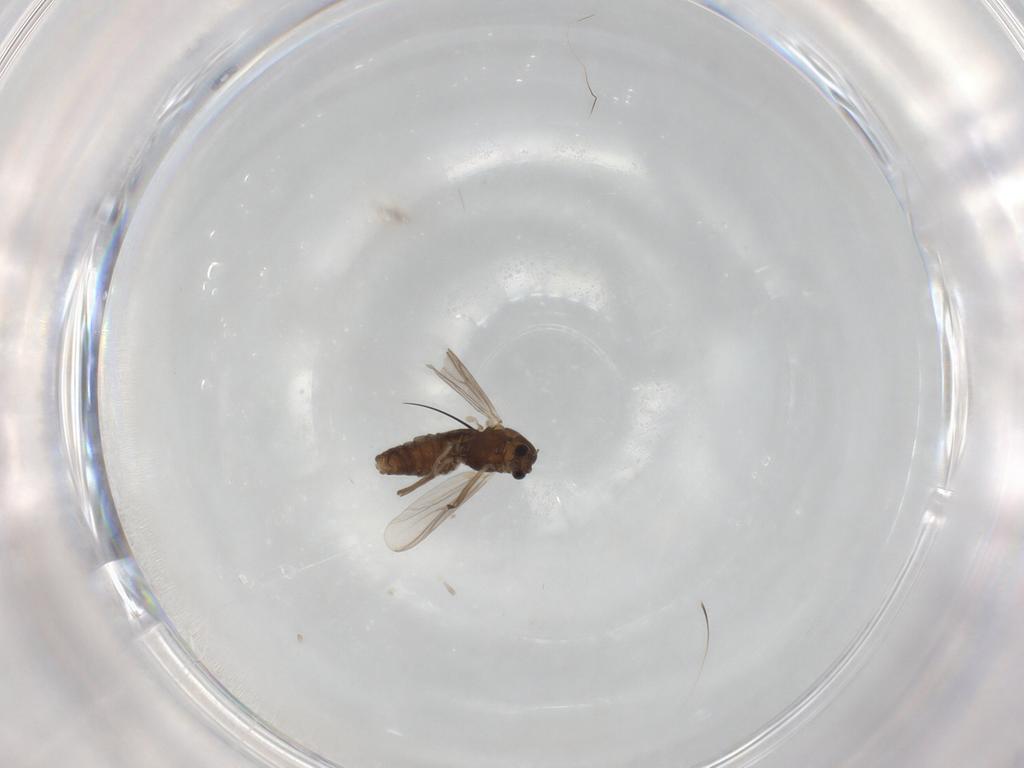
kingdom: Animalia
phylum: Arthropoda
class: Insecta
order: Diptera
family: Chironomidae
